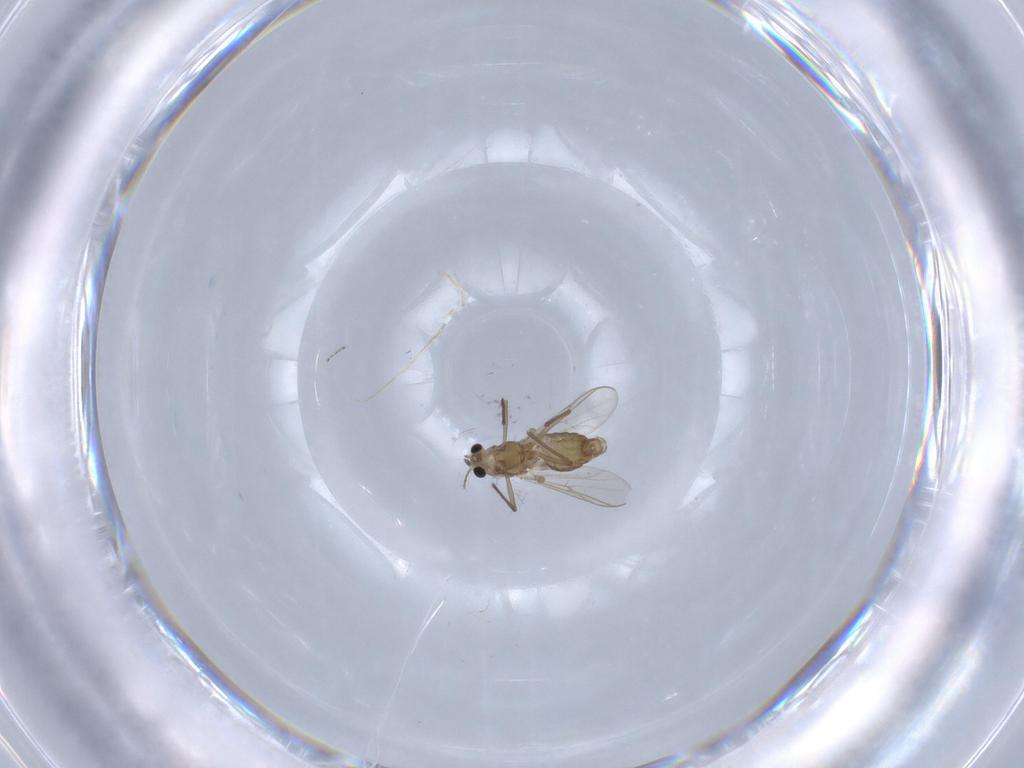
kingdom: Animalia
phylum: Arthropoda
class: Insecta
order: Diptera
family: Chironomidae
